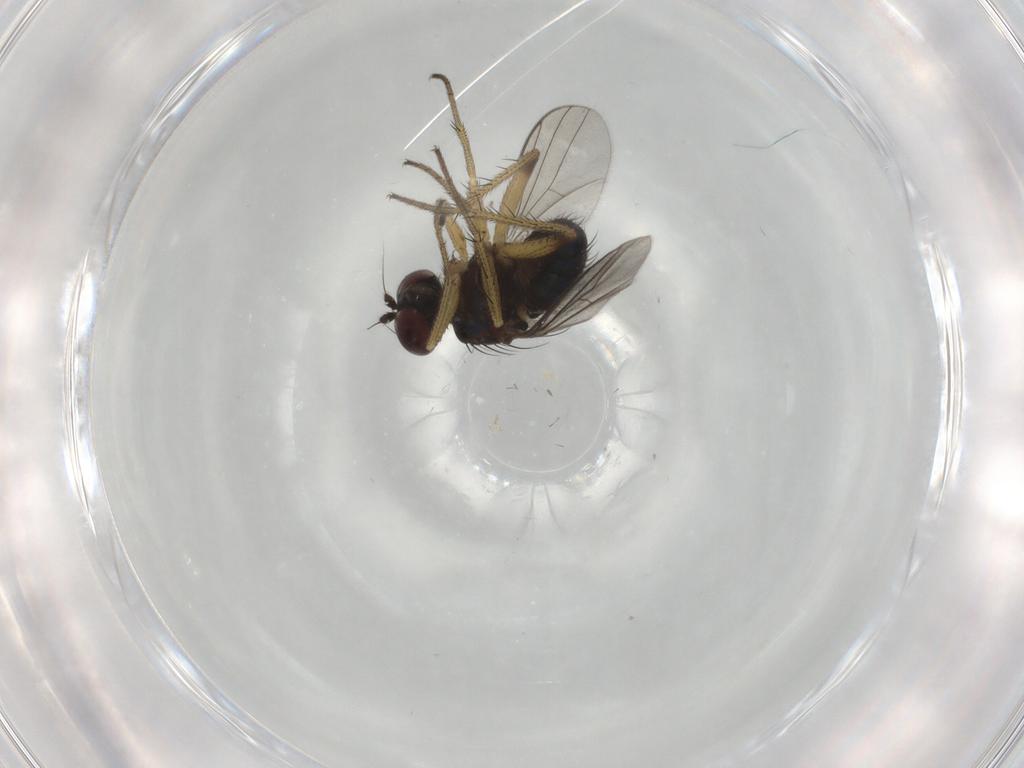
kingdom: Animalia
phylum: Arthropoda
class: Insecta
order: Diptera
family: Dolichopodidae
